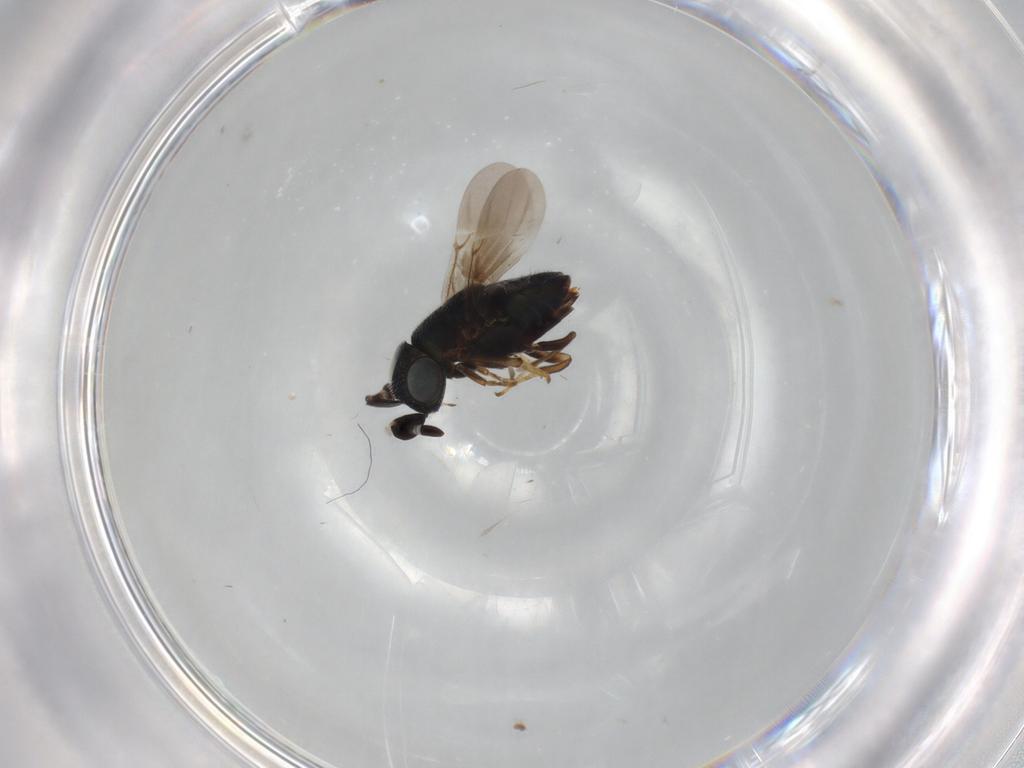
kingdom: Animalia
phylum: Arthropoda
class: Insecta
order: Hymenoptera
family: Encyrtidae
